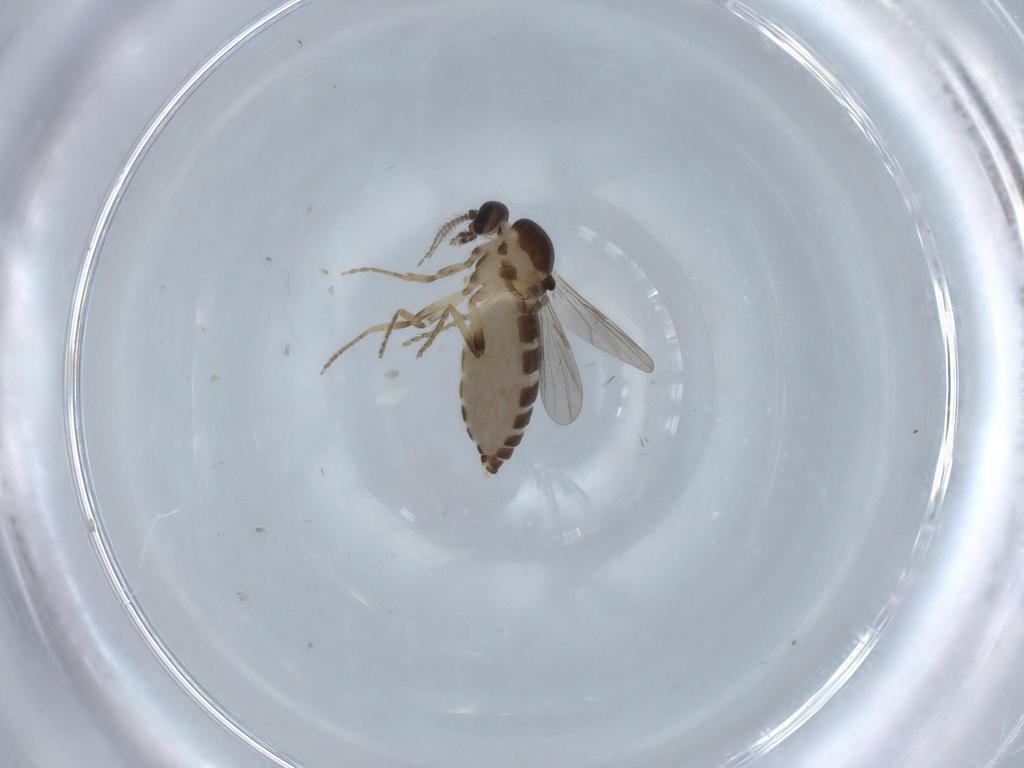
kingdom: Animalia
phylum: Arthropoda
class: Insecta
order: Diptera
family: Ceratopogonidae
